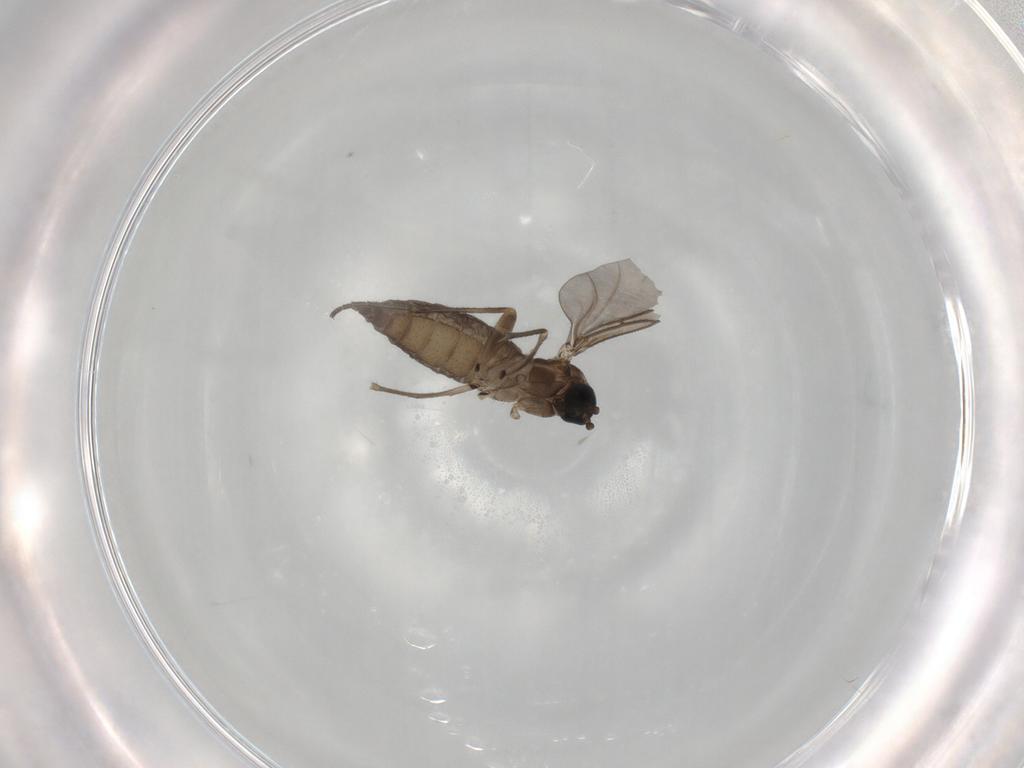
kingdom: Animalia
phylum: Arthropoda
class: Insecta
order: Diptera
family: Sciaridae
